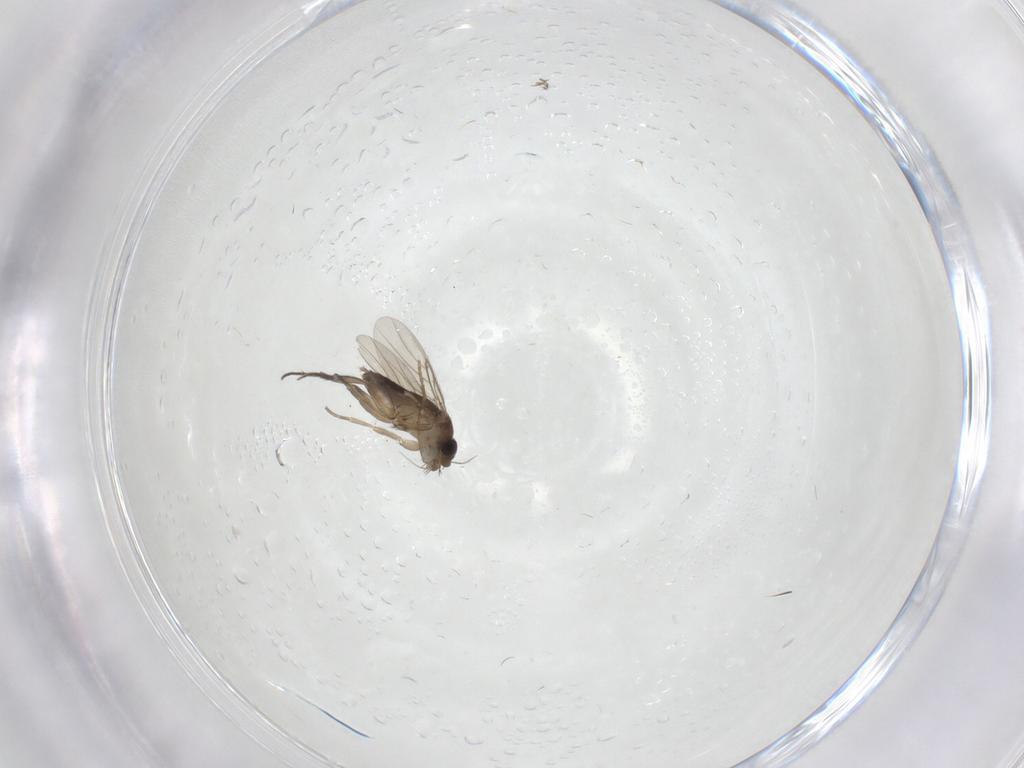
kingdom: Animalia
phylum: Arthropoda
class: Insecta
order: Diptera
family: Phoridae
